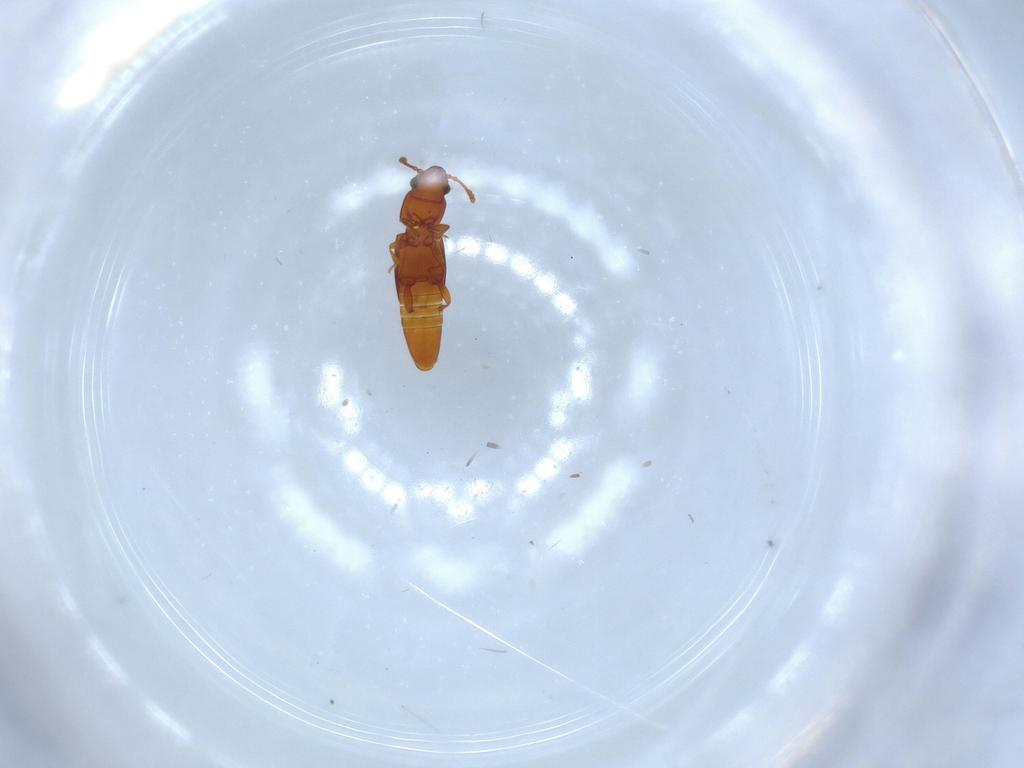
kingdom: Animalia
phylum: Arthropoda
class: Insecta
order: Coleoptera
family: Smicripidae
